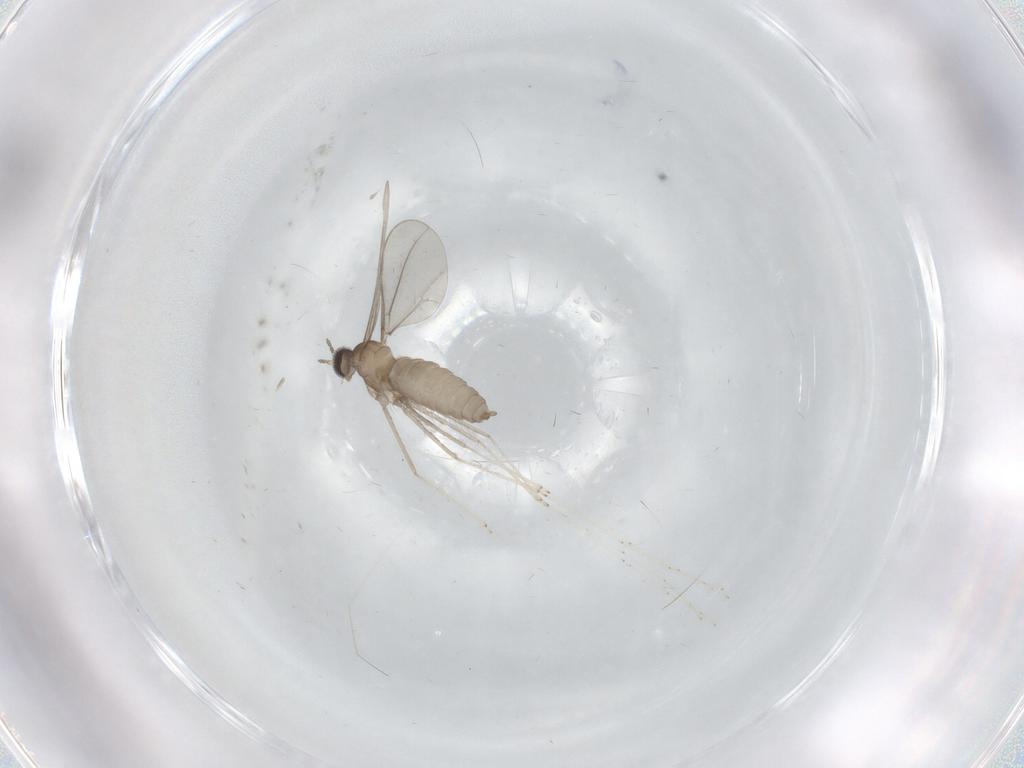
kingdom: Animalia
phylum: Arthropoda
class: Insecta
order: Diptera
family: Cecidomyiidae
